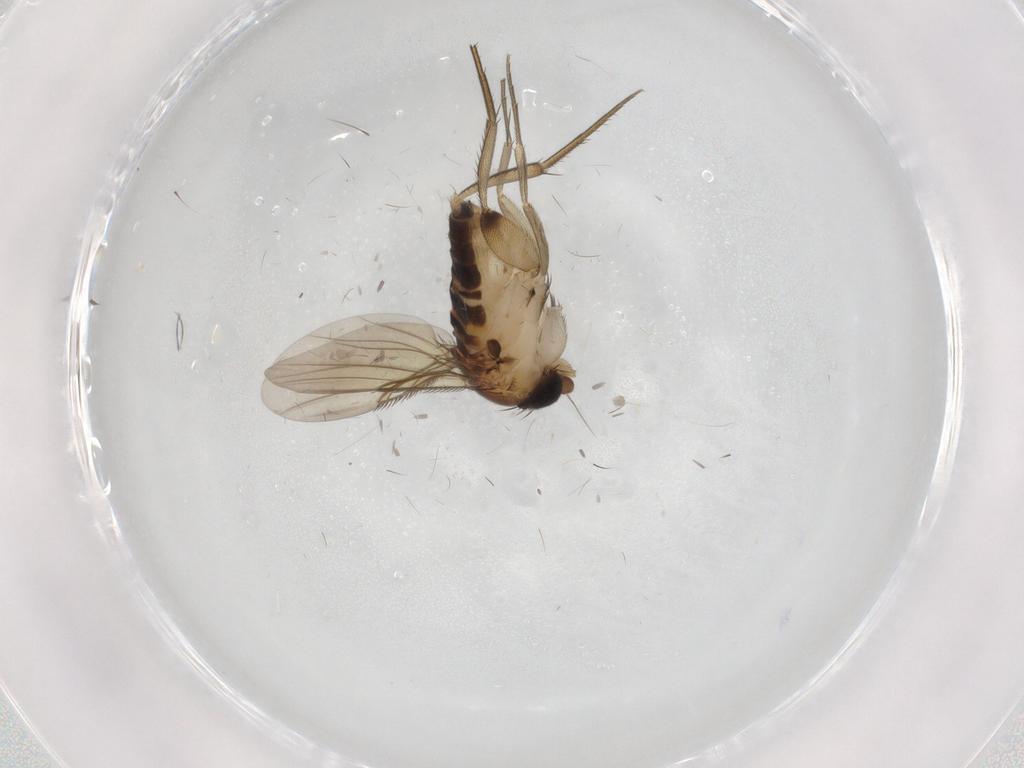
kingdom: Animalia
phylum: Arthropoda
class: Insecta
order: Diptera
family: Phoridae
